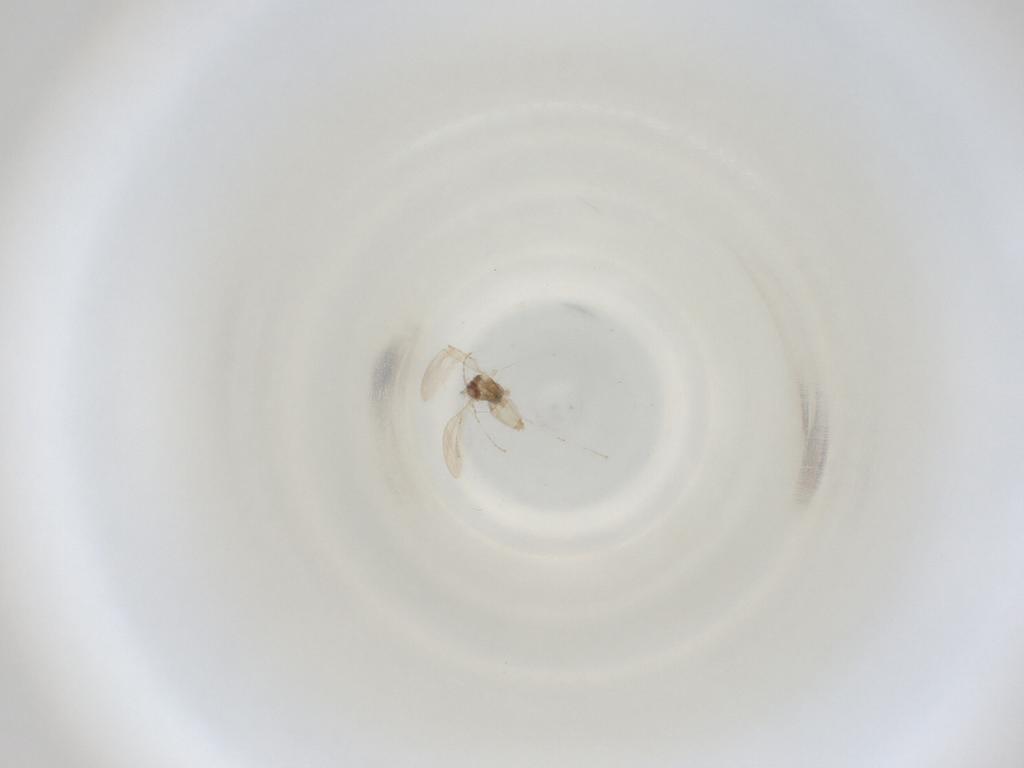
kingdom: Animalia
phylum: Arthropoda
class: Insecta
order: Diptera
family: Cecidomyiidae
